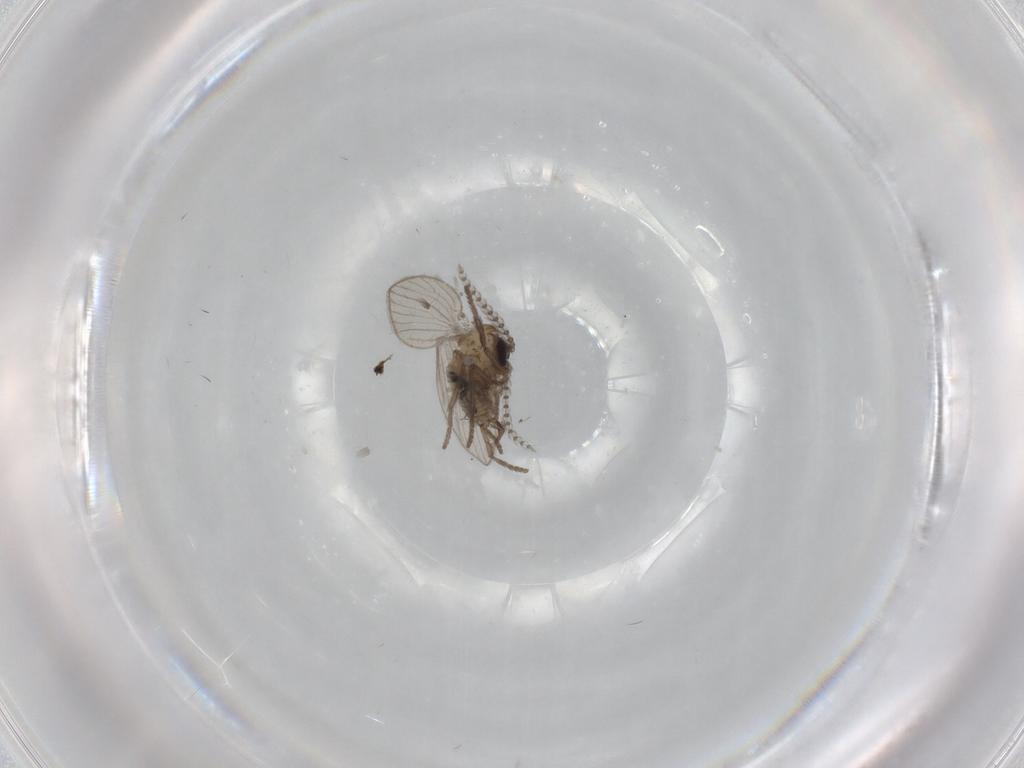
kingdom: Animalia
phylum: Arthropoda
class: Insecta
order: Diptera
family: Psychodidae
